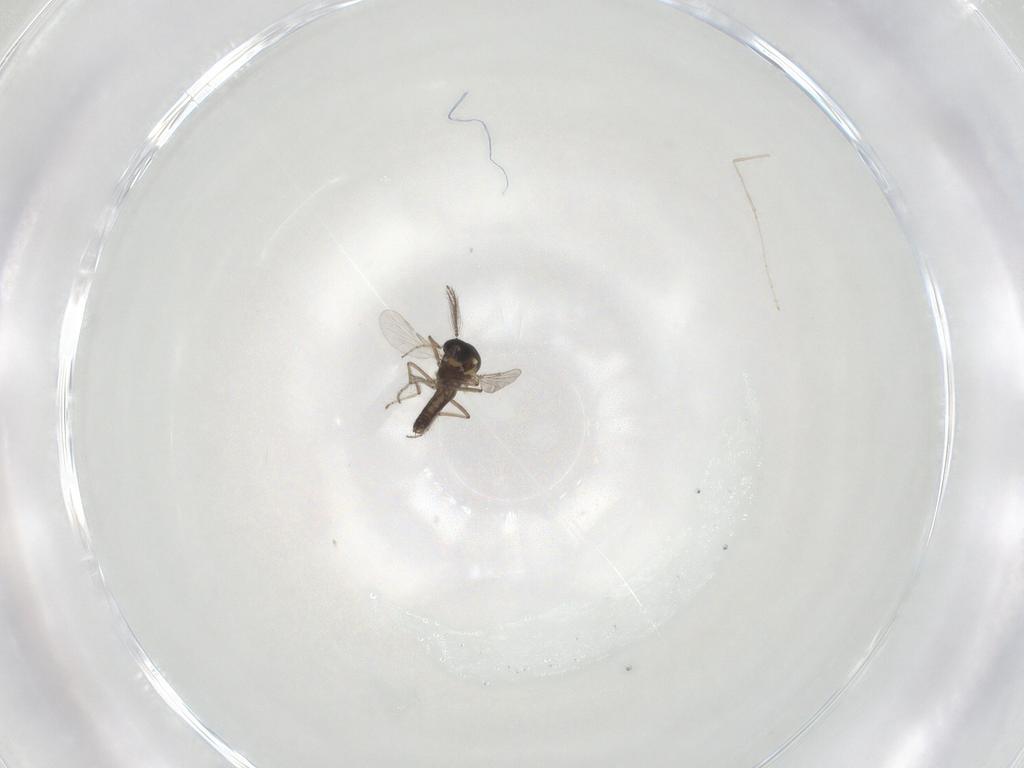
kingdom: Animalia
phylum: Arthropoda
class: Insecta
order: Diptera
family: Ceratopogonidae
